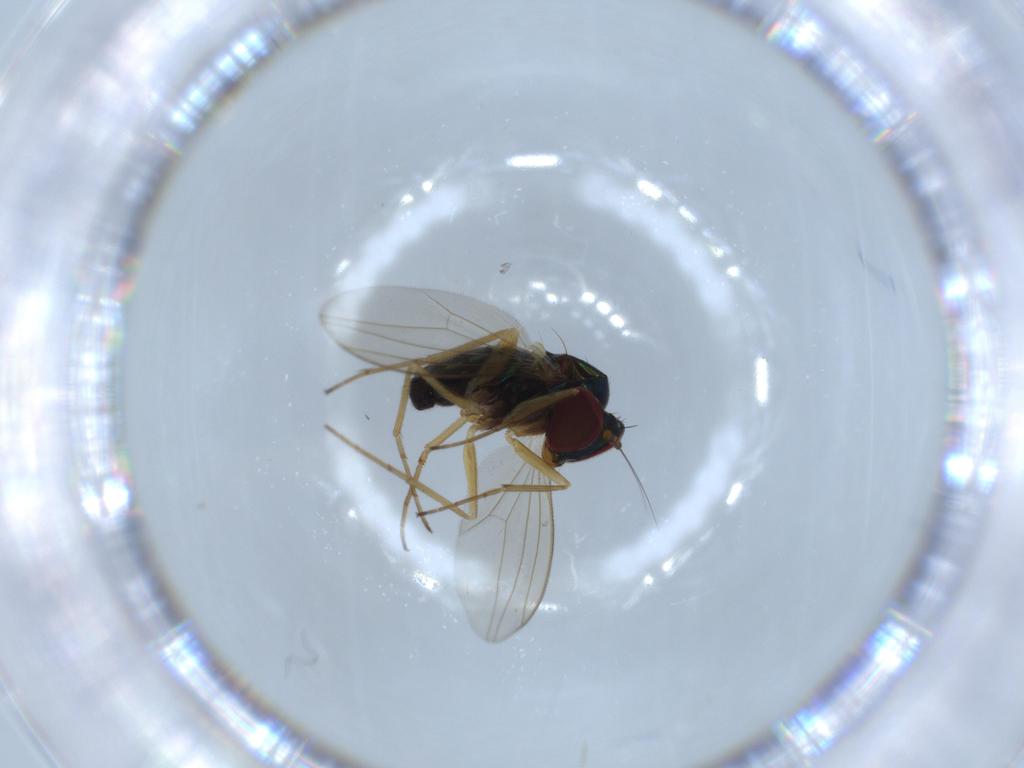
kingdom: Animalia
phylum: Arthropoda
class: Insecta
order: Diptera
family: Dolichopodidae
